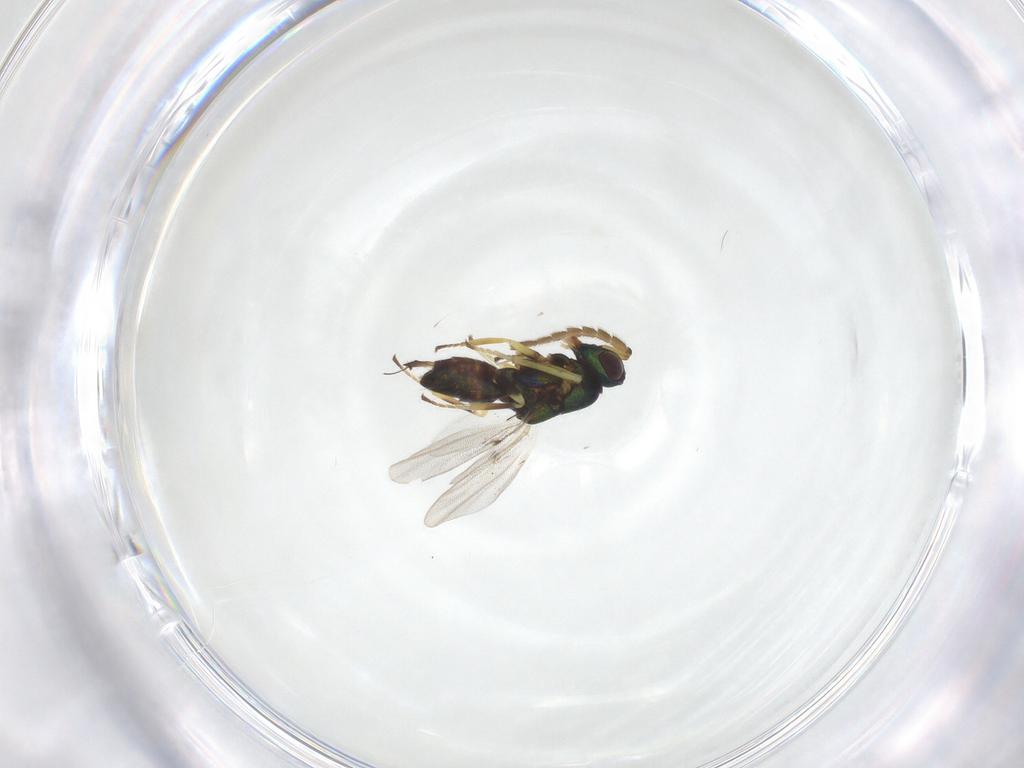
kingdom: Animalia
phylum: Arthropoda
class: Insecta
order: Hymenoptera
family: Encyrtidae
